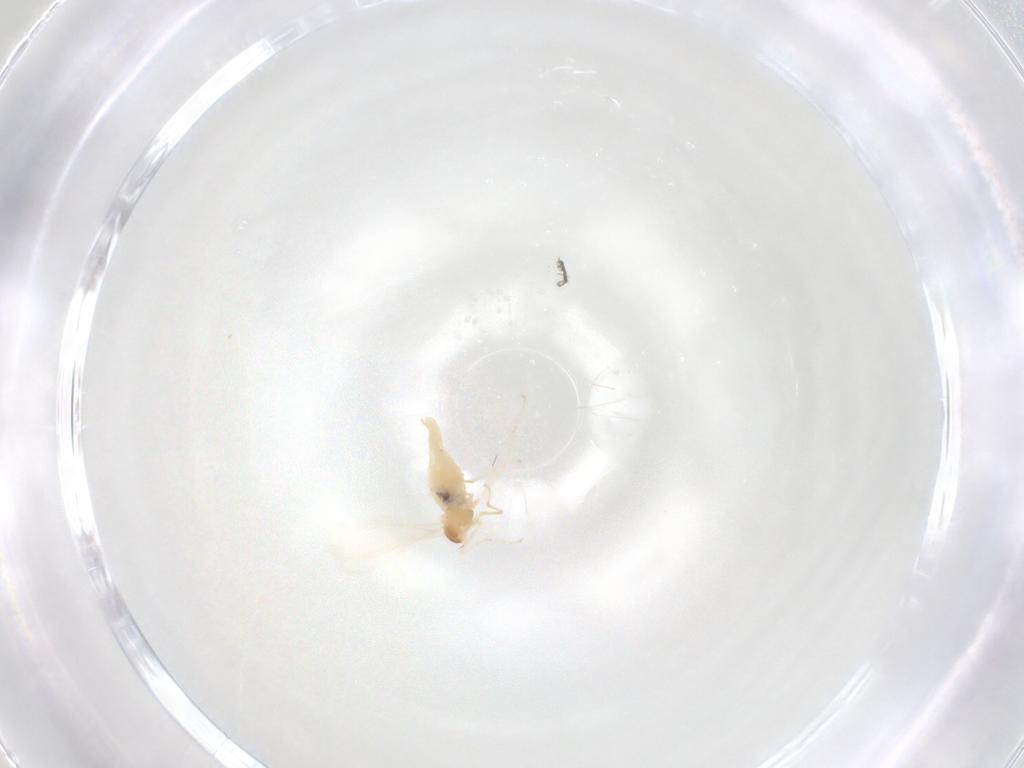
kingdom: Animalia
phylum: Arthropoda
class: Insecta
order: Diptera
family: Cecidomyiidae
